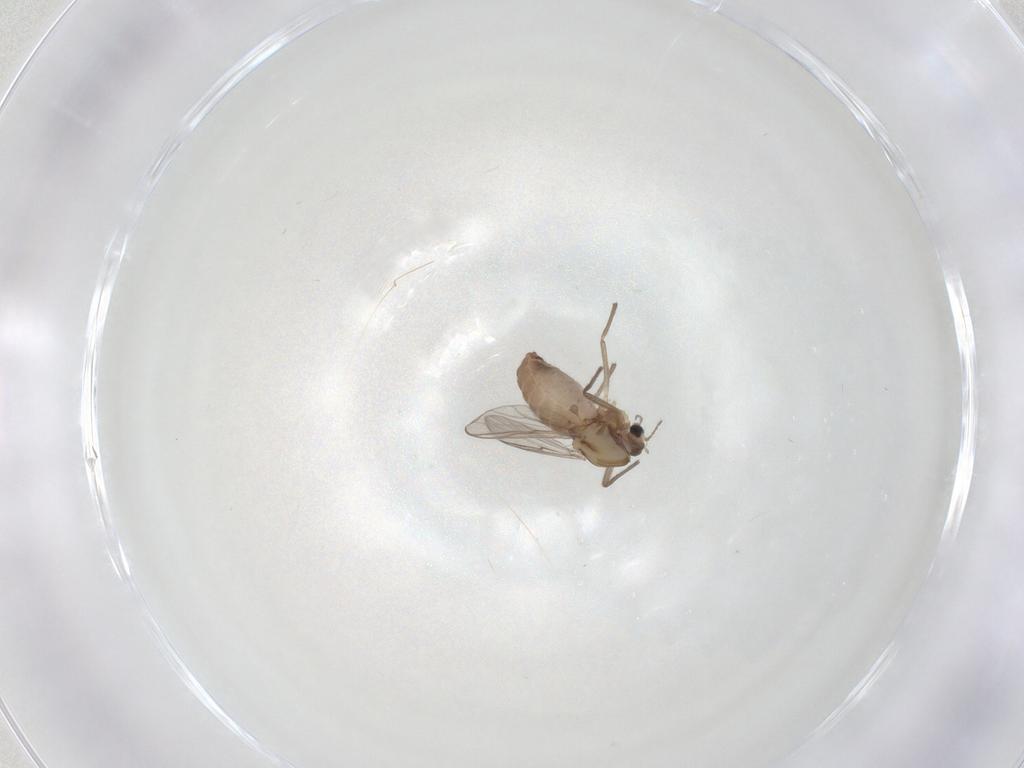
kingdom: Animalia
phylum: Arthropoda
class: Insecta
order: Diptera
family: Chironomidae
